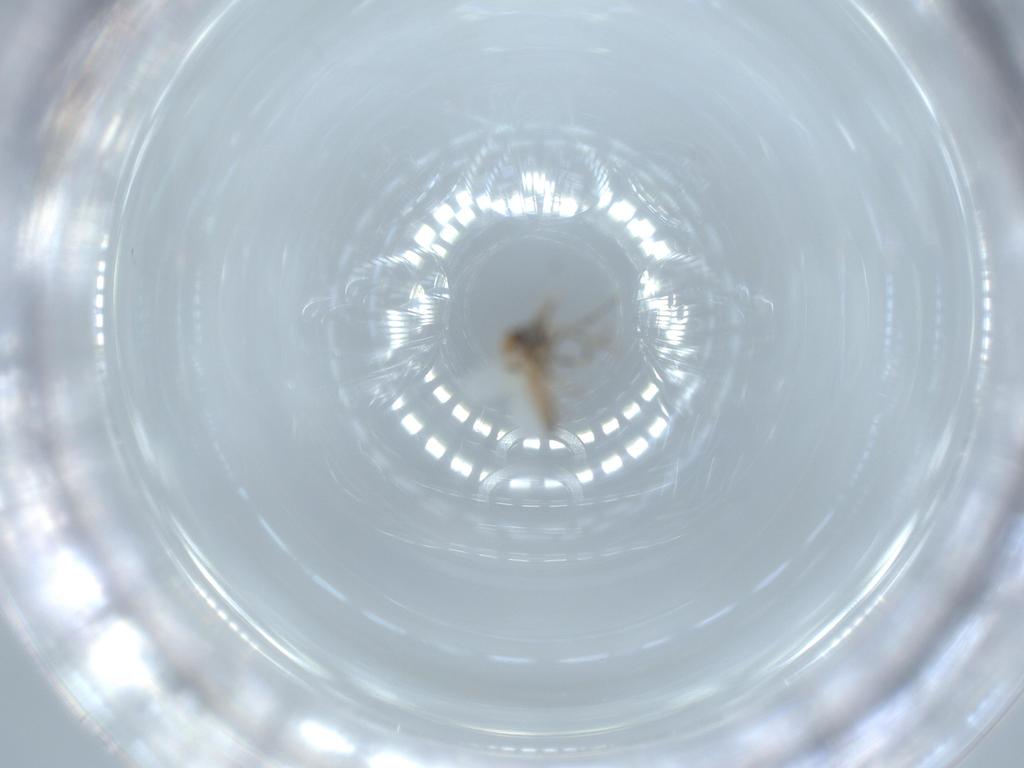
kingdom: Animalia
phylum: Arthropoda
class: Insecta
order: Diptera
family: Ceratopogonidae
